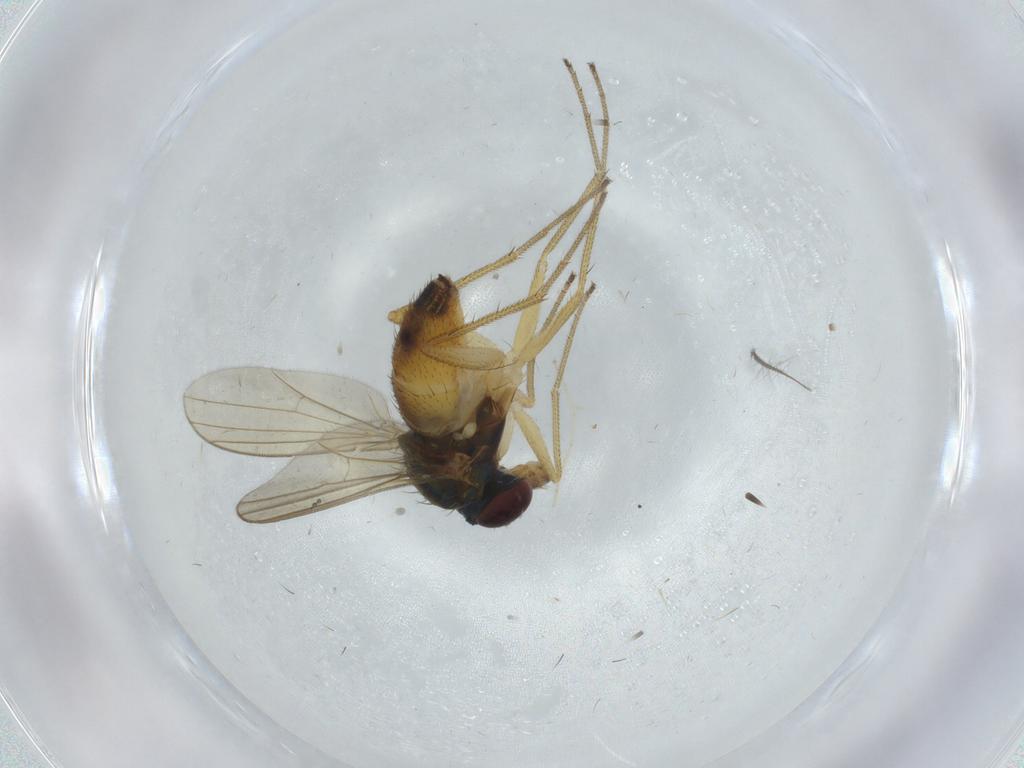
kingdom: Animalia
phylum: Arthropoda
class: Insecta
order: Diptera
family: Dolichopodidae
